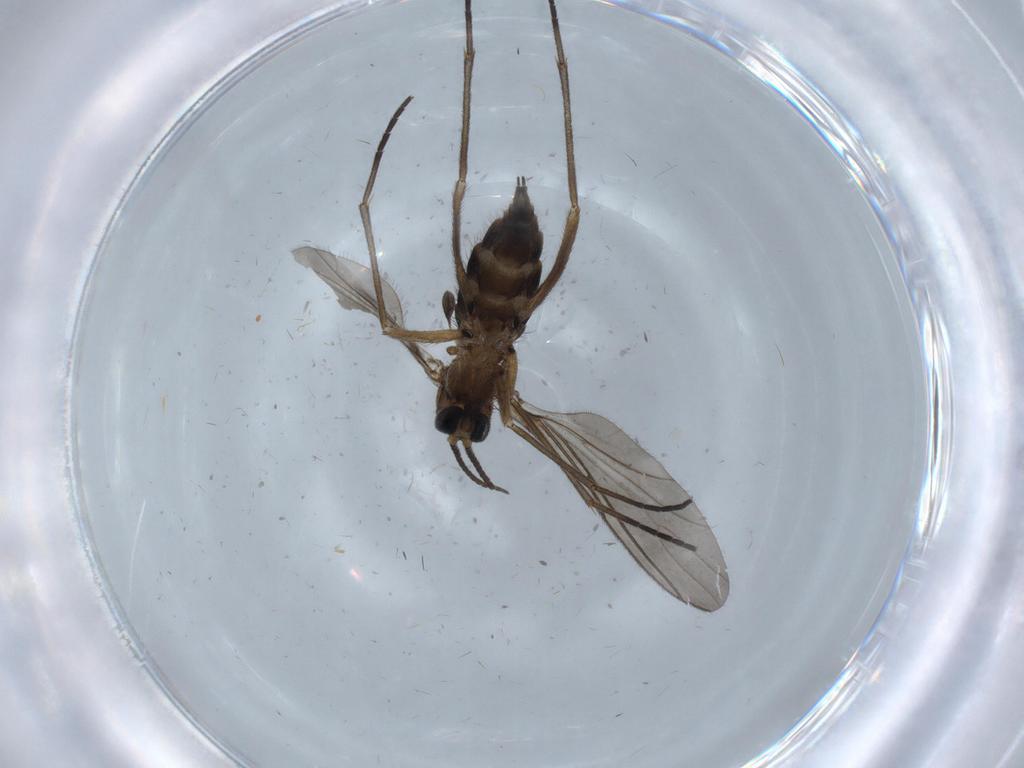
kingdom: Animalia
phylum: Arthropoda
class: Insecta
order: Diptera
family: Sciaridae
